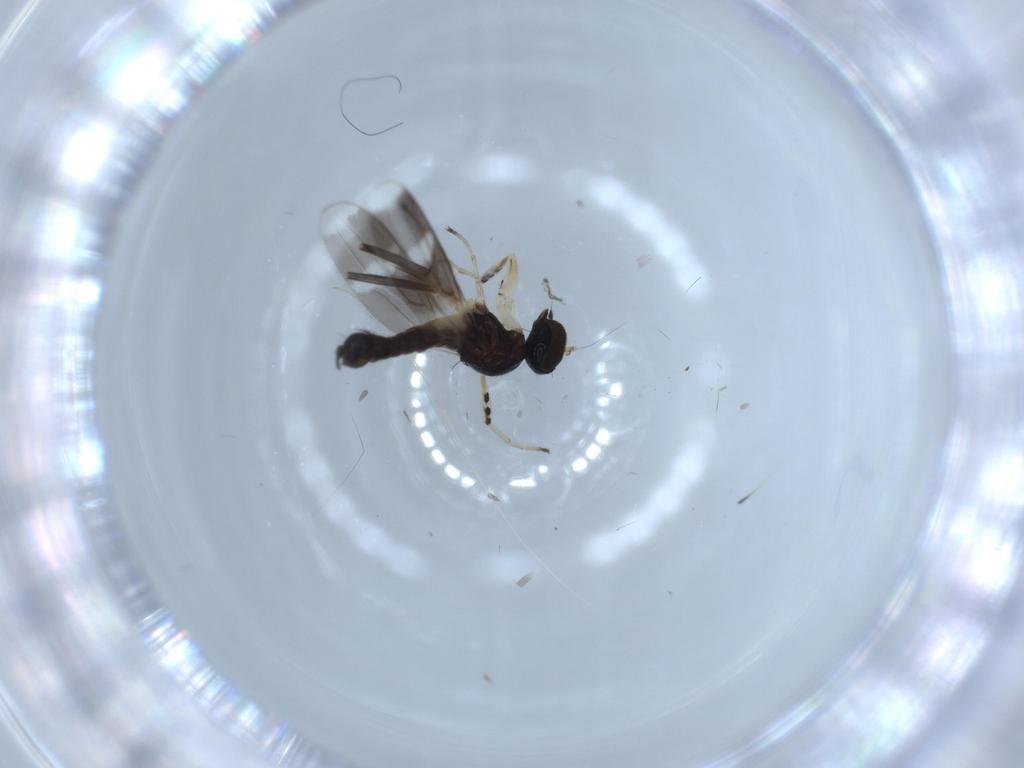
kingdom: Animalia
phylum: Arthropoda
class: Insecta
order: Diptera
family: Hybotidae
